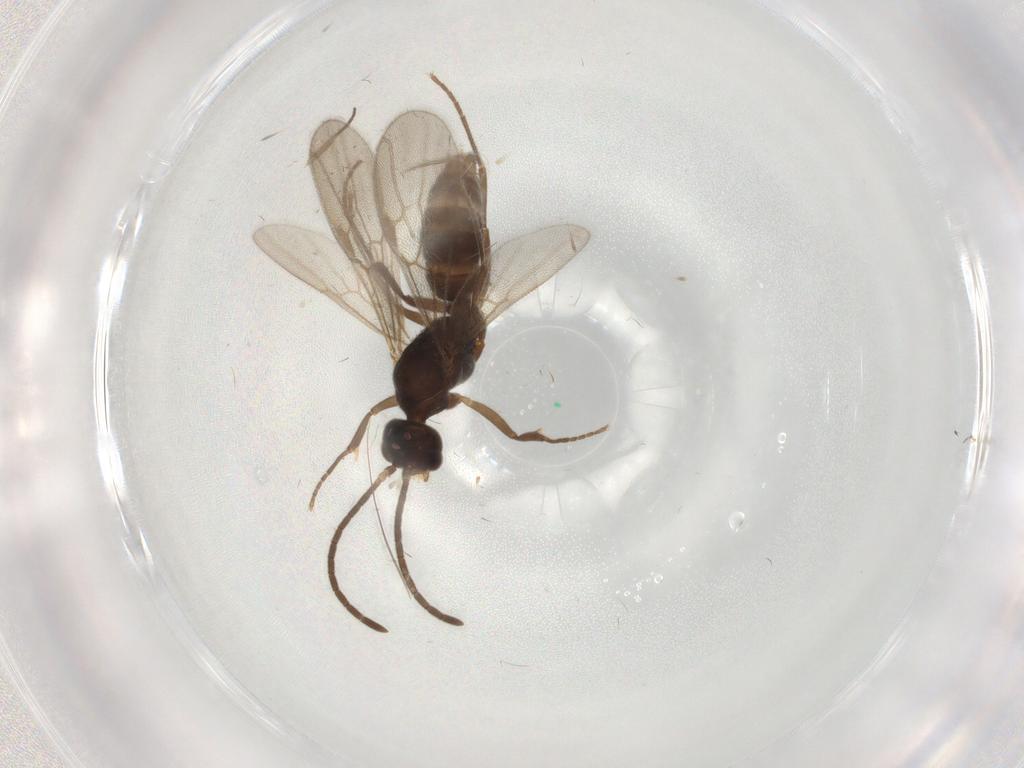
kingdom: Animalia
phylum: Arthropoda
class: Insecta
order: Hymenoptera
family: Formicidae
